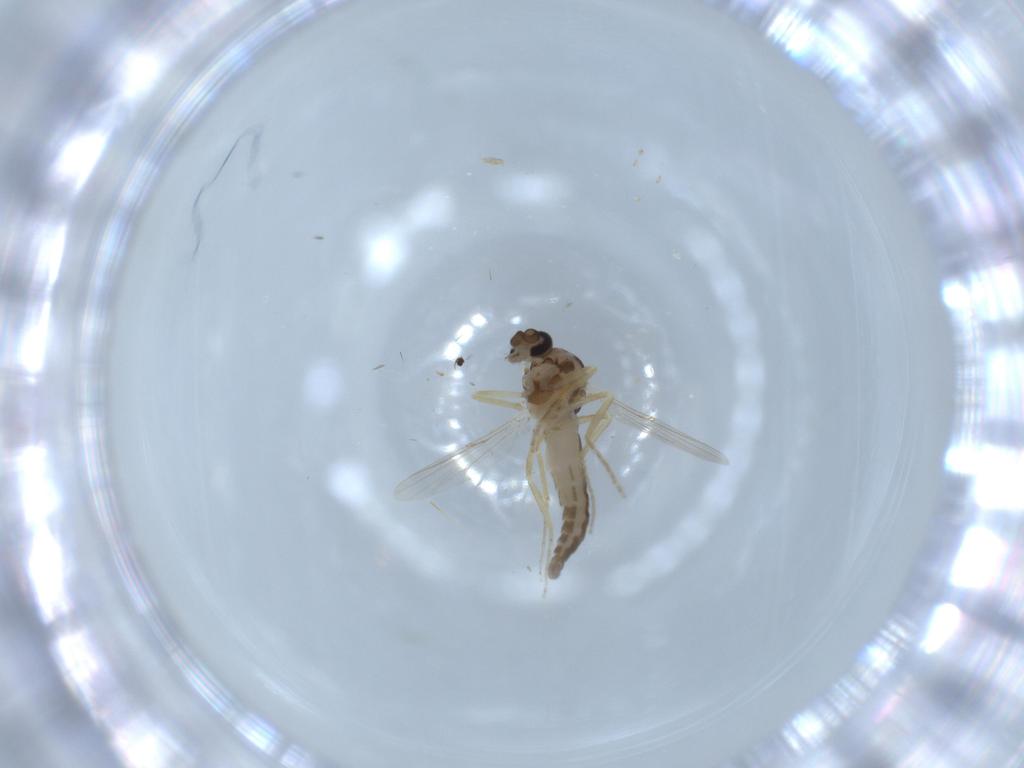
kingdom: Animalia
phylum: Arthropoda
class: Insecta
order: Diptera
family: Ceratopogonidae
